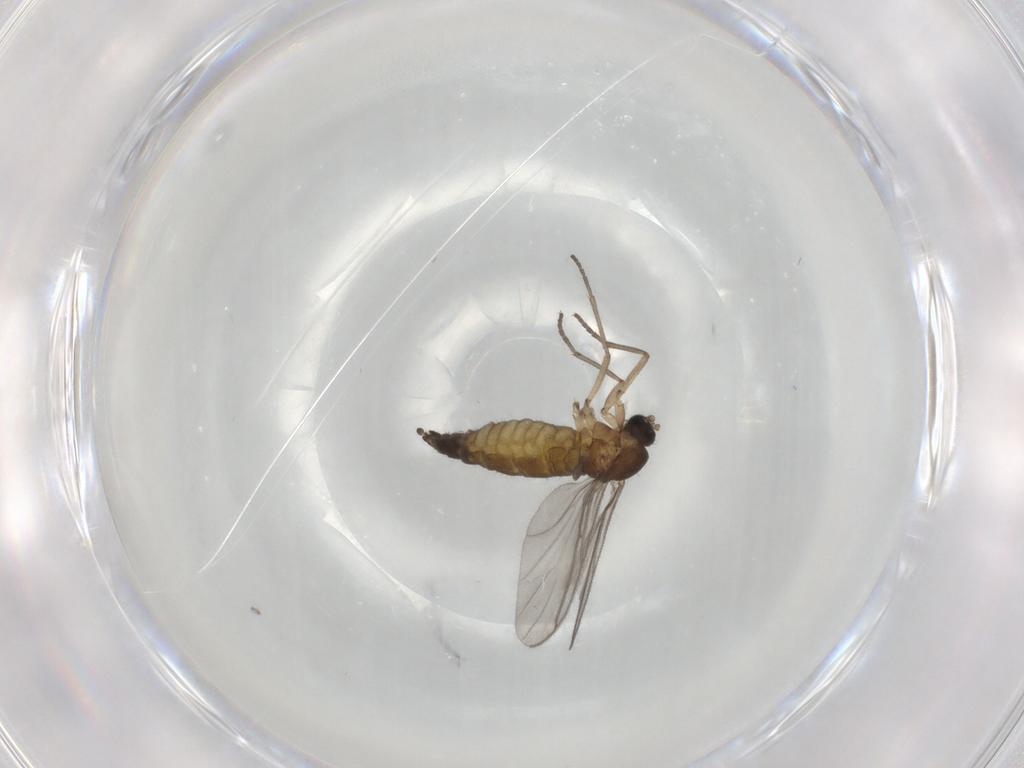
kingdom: Animalia
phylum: Arthropoda
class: Insecta
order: Diptera
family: Sciaridae
